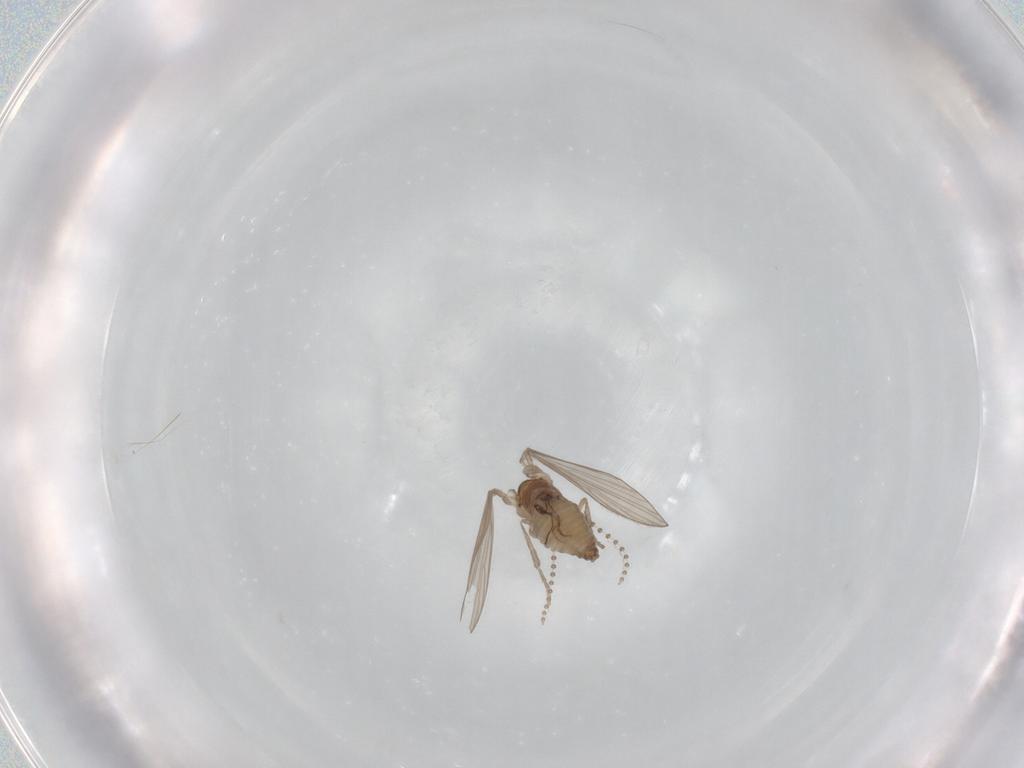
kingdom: Animalia
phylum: Arthropoda
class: Insecta
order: Diptera
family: Psychodidae
